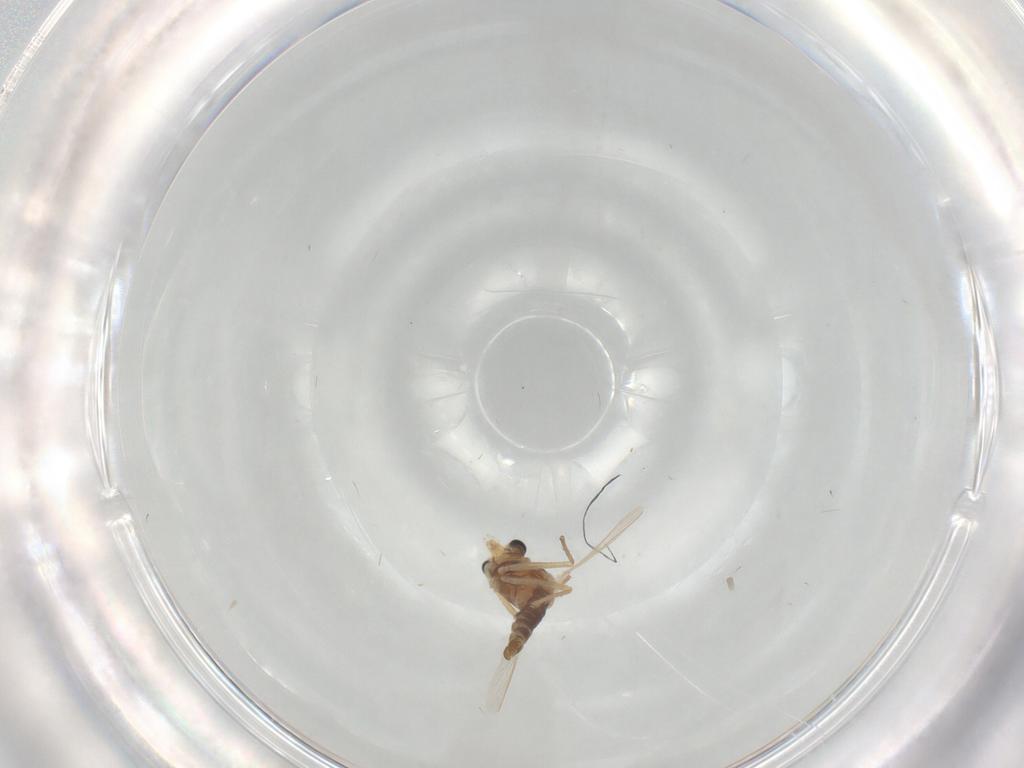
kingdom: Animalia
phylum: Arthropoda
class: Insecta
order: Diptera
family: Chironomidae
